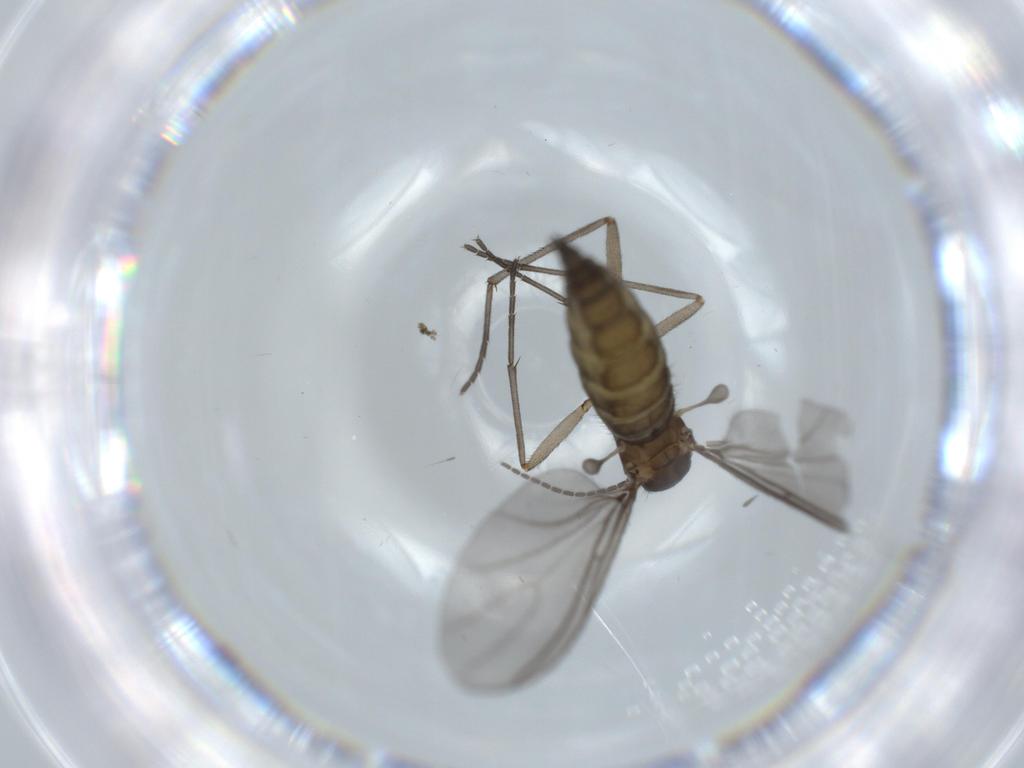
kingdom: Animalia
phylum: Arthropoda
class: Insecta
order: Diptera
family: Sciaridae
